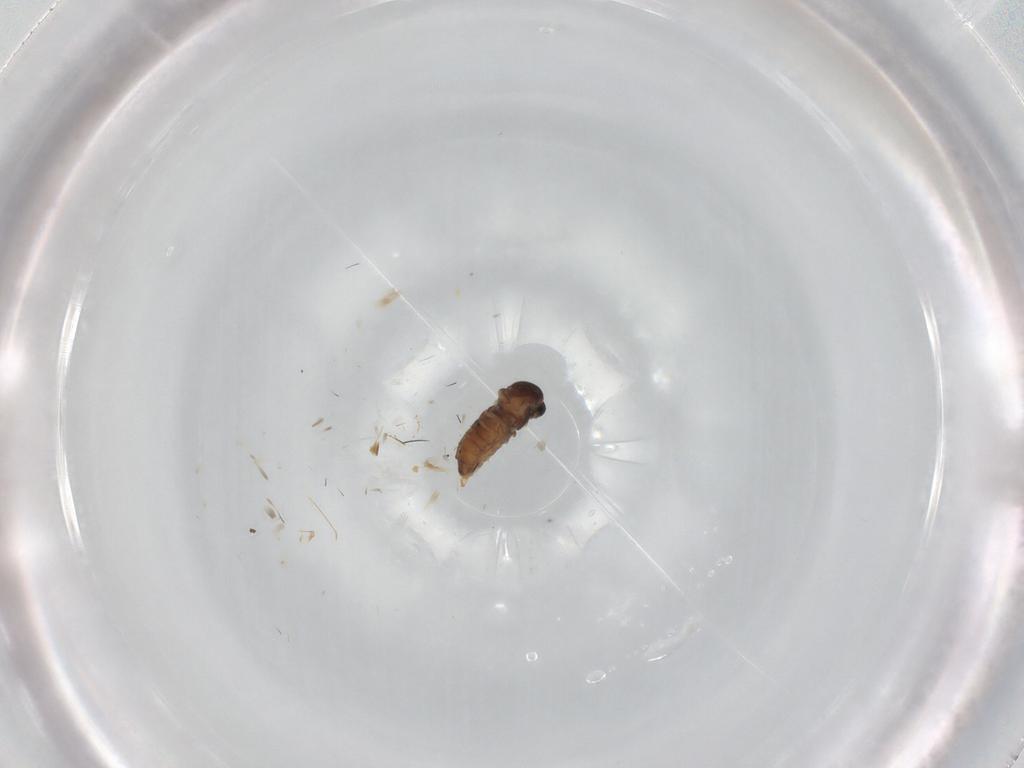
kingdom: Animalia
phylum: Arthropoda
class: Insecta
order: Diptera
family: Cecidomyiidae
